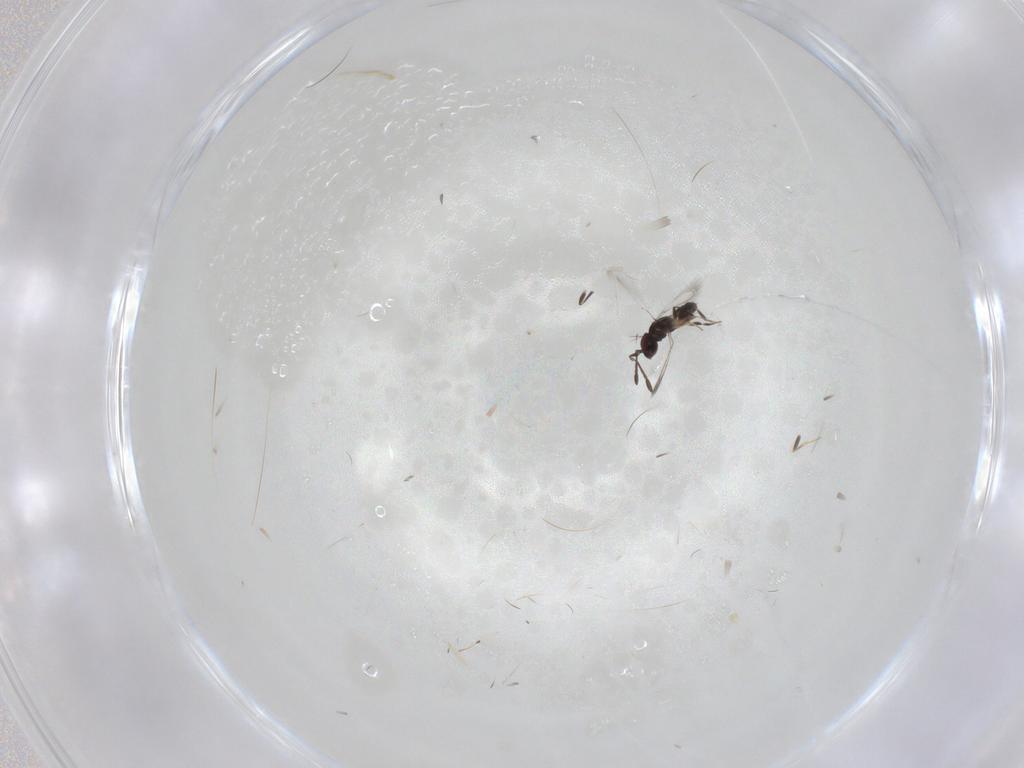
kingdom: Animalia
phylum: Arthropoda
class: Insecta
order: Hymenoptera
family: Mymaridae
